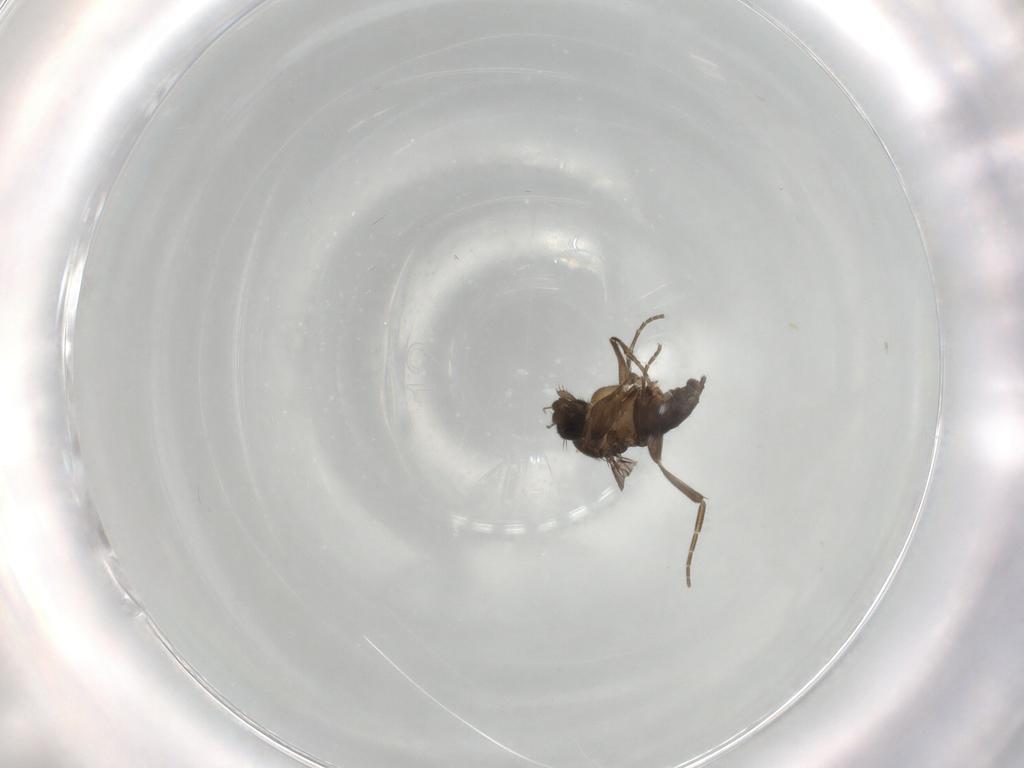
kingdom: Animalia
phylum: Arthropoda
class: Insecta
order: Diptera
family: Phoridae
